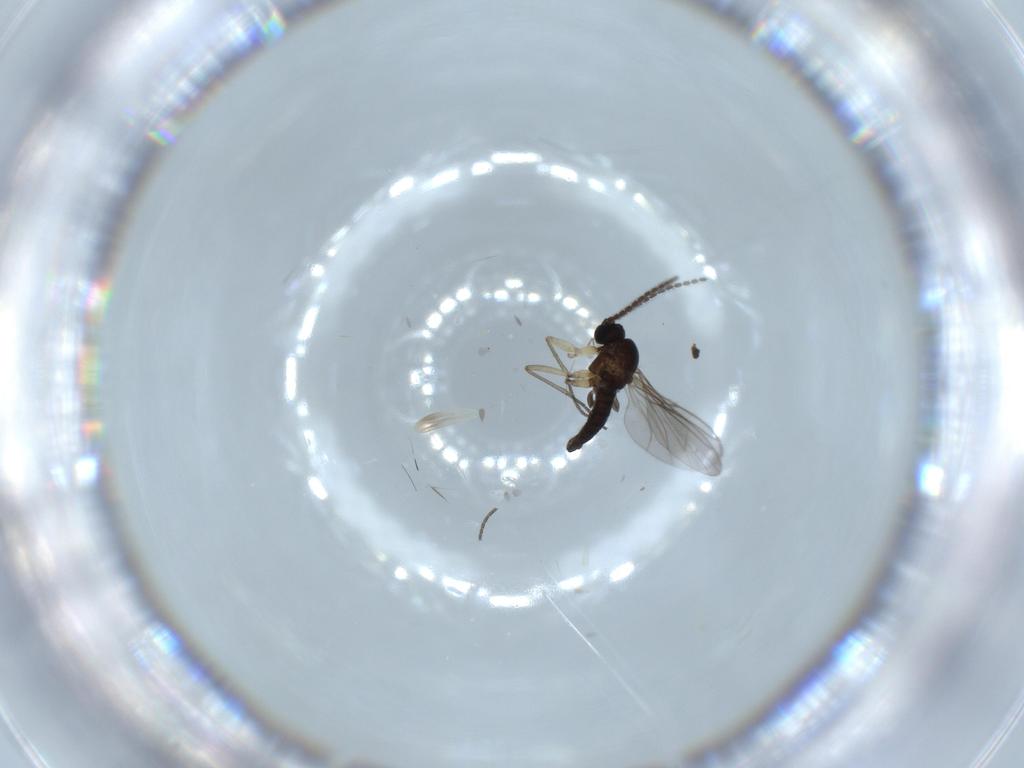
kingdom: Animalia
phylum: Arthropoda
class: Insecta
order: Diptera
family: Sciaridae
